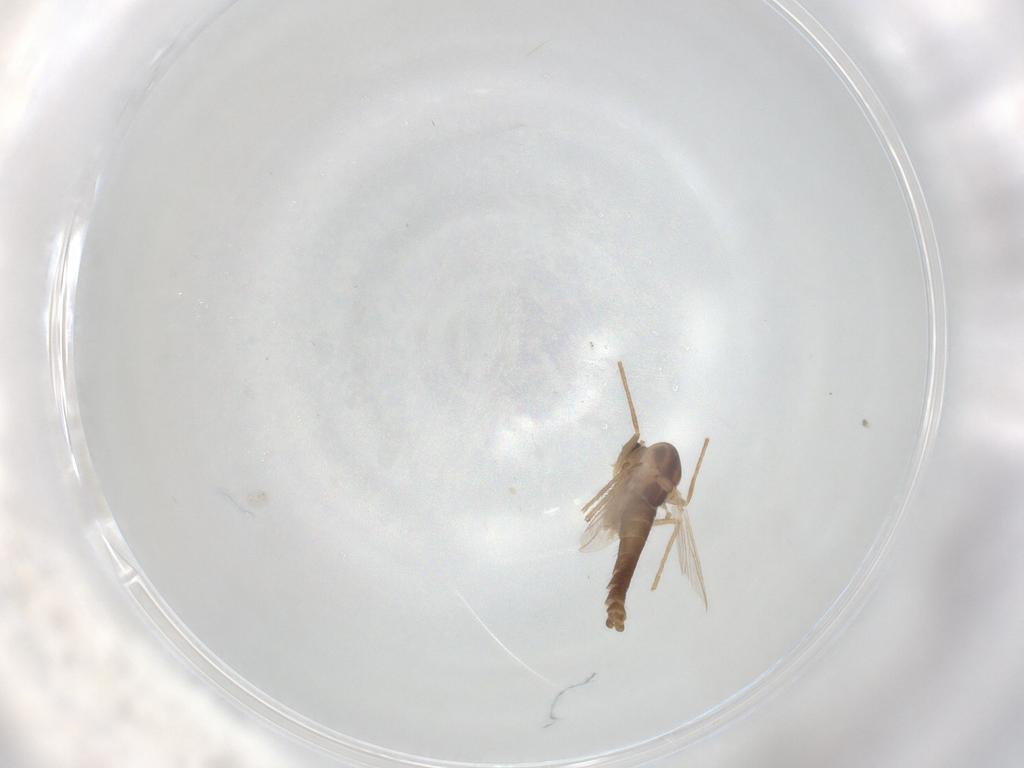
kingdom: Animalia
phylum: Arthropoda
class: Insecta
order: Diptera
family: Chironomidae
